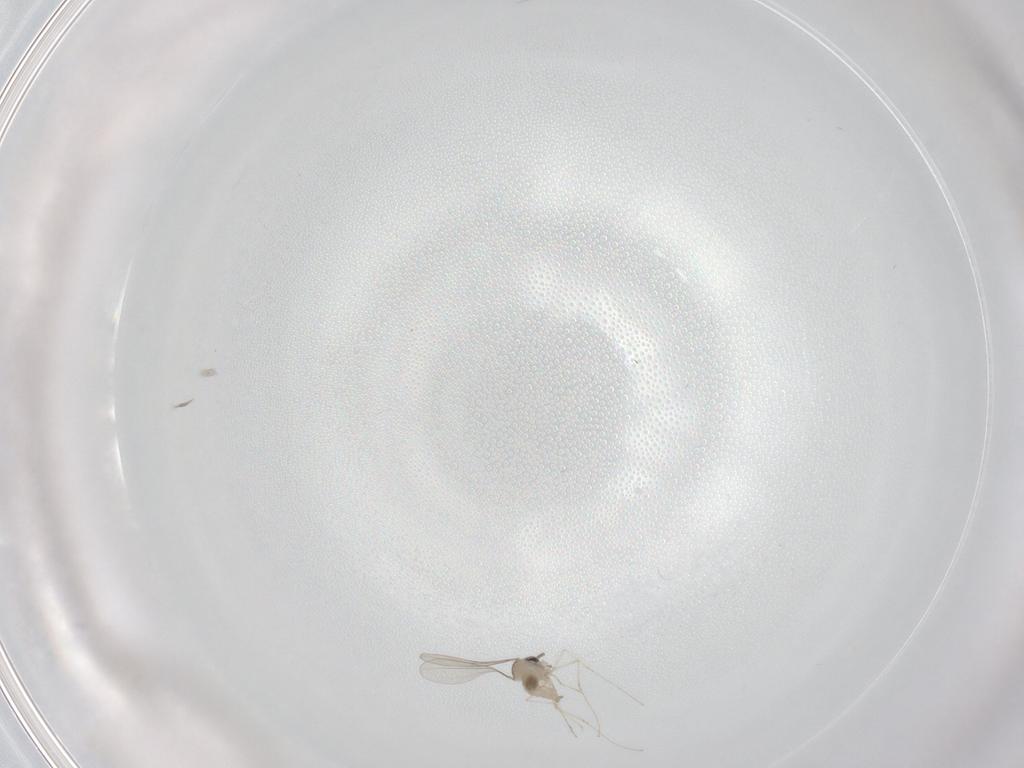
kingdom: Animalia
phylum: Arthropoda
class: Insecta
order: Diptera
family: Cecidomyiidae
